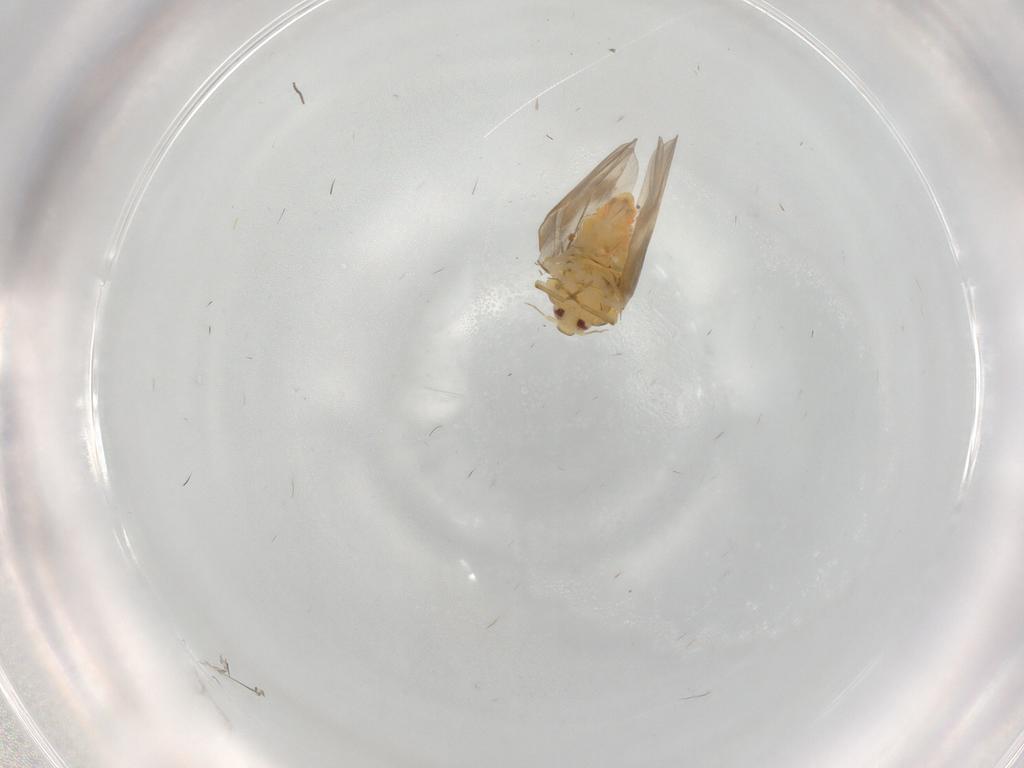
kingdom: Animalia
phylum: Arthropoda
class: Insecta
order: Hemiptera
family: Aleyrodidae
